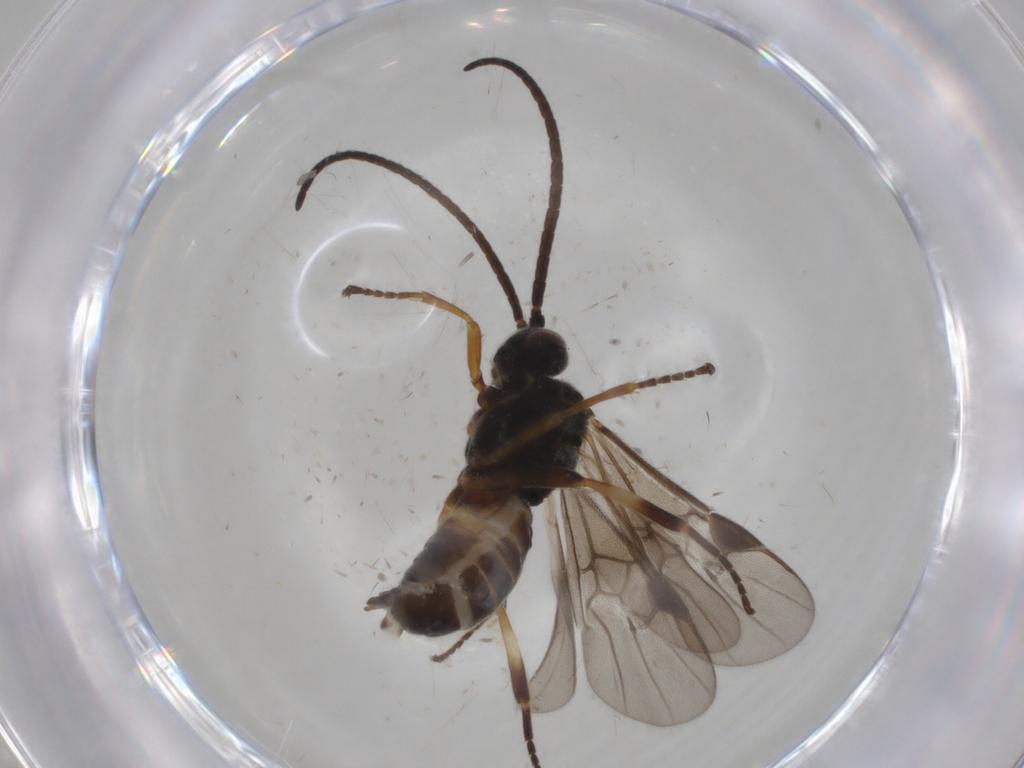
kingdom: Animalia
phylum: Arthropoda
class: Insecta
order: Hymenoptera
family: Braconidae
